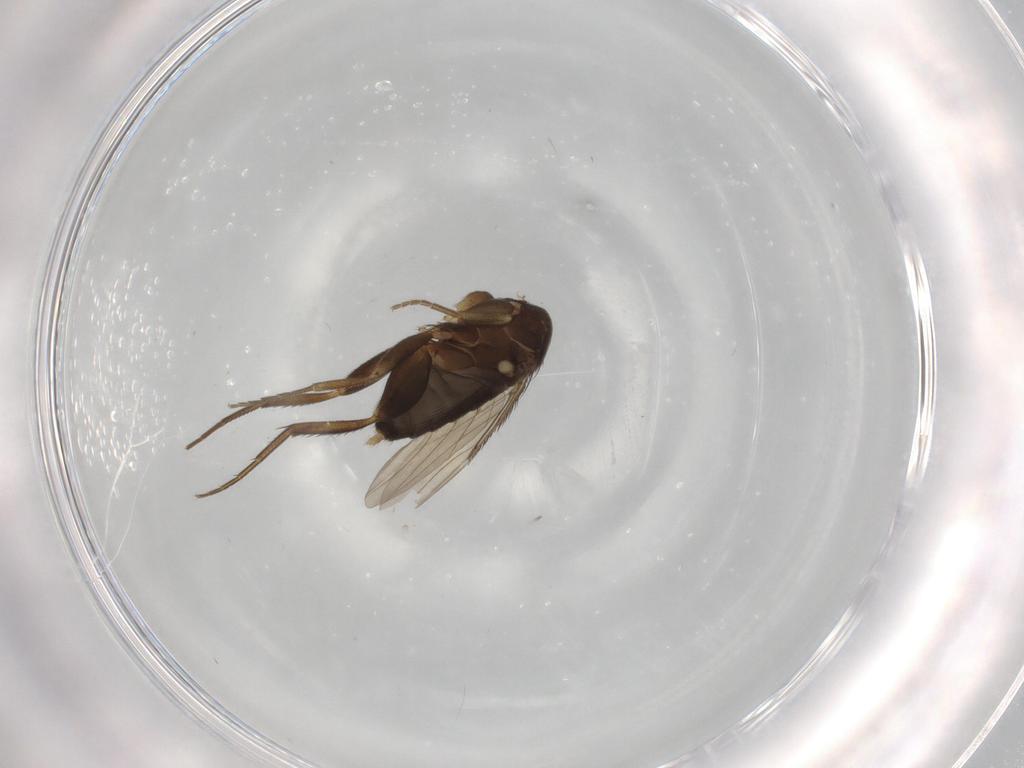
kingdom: Animalia
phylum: Arthropoda
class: Insecta
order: Diptera
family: Phoridae
